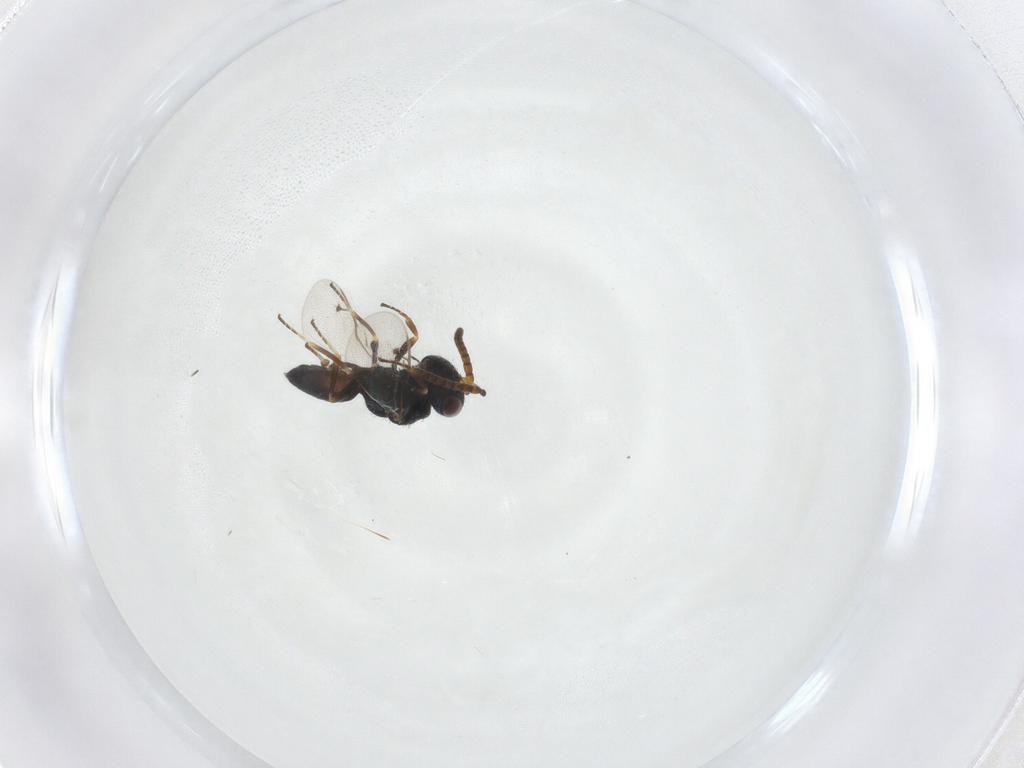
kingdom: Animalia
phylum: Arthropoda
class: Insecta
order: Hymenoptera
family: Pteromalidae
